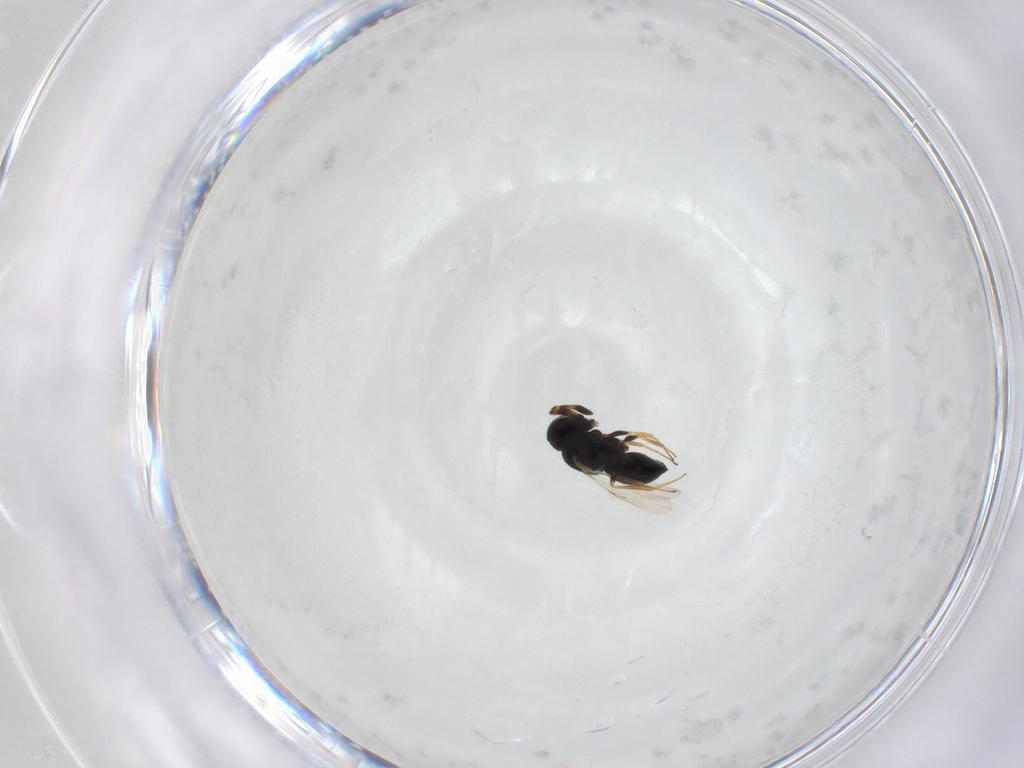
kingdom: Animalia
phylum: Arthropoda
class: Insecta
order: Hymenoptera
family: Scelionidae
